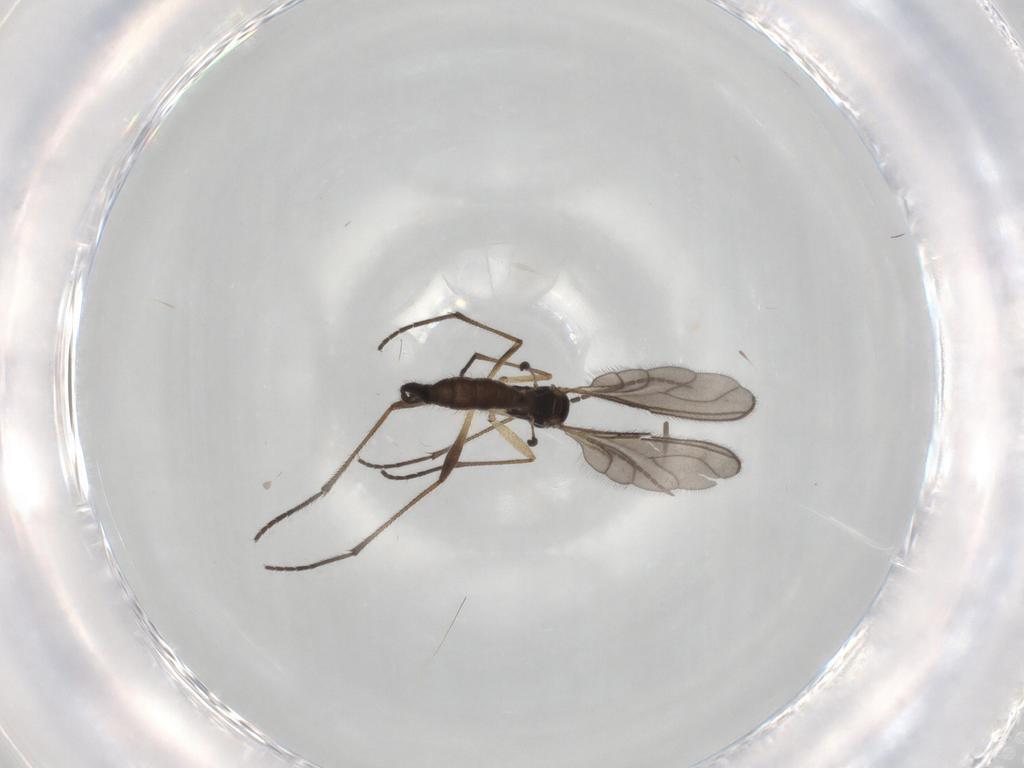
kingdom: Animalia
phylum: Arthropoda
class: Insecta
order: Diptera
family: Sciaridae
